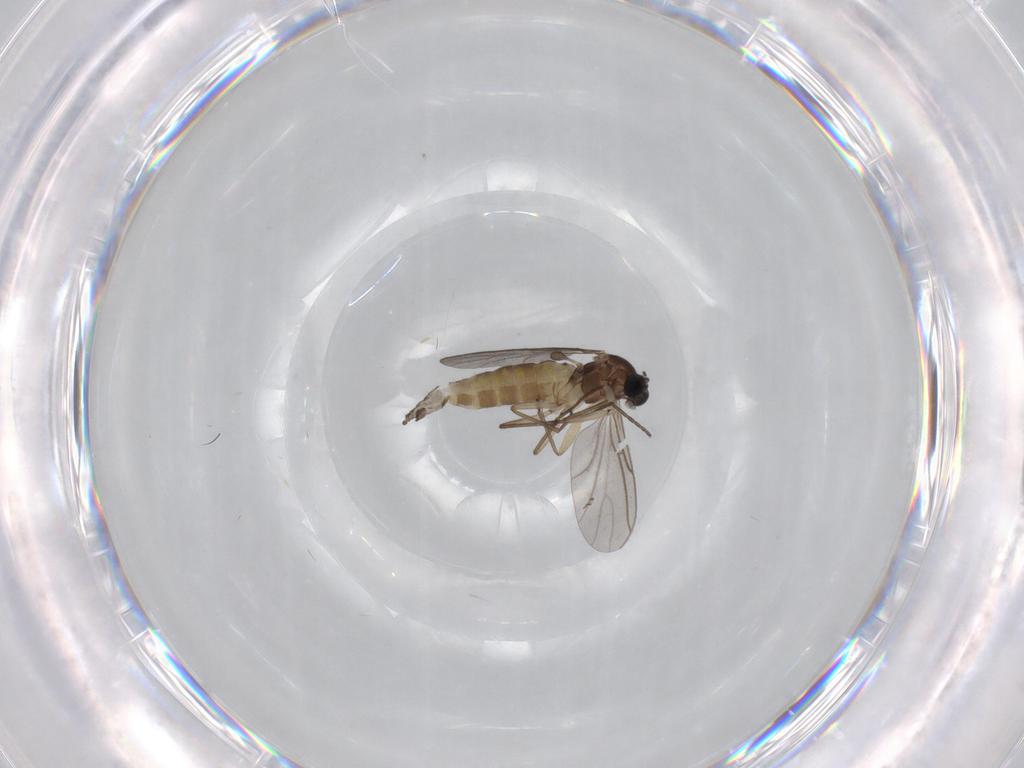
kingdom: Animalia
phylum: Arthropoda
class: Insecta
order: Diptera
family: Sciaridae
